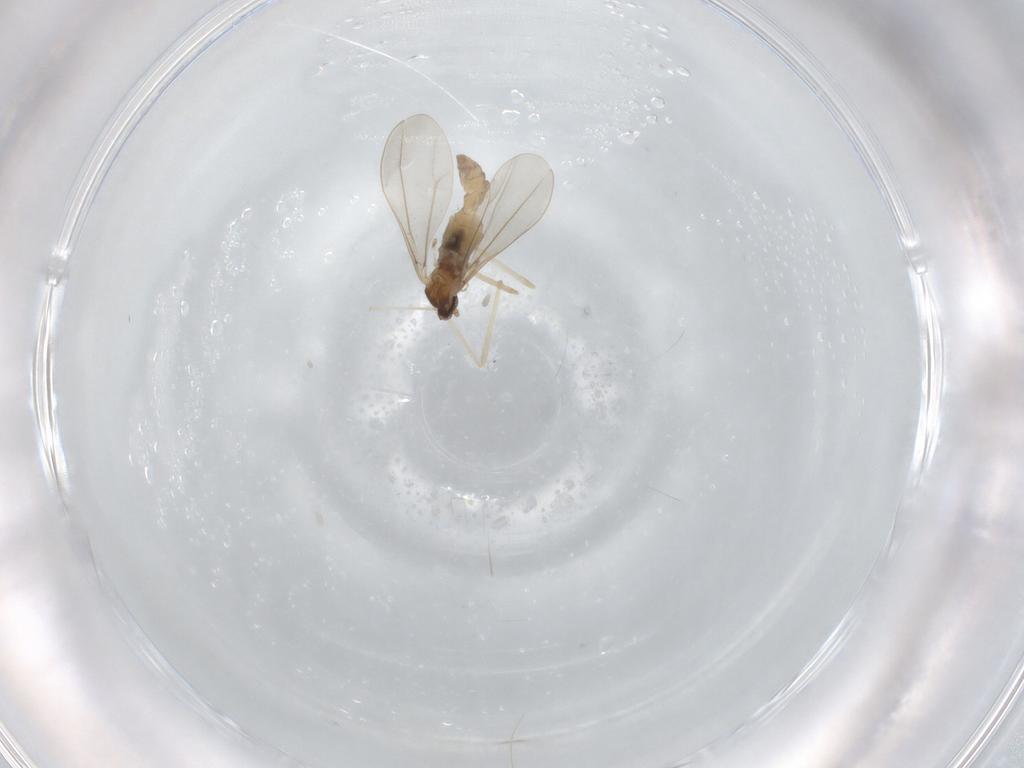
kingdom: Animalia
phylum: Arthropoda
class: Insecta
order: Diptera
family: Cecidomyiidae
